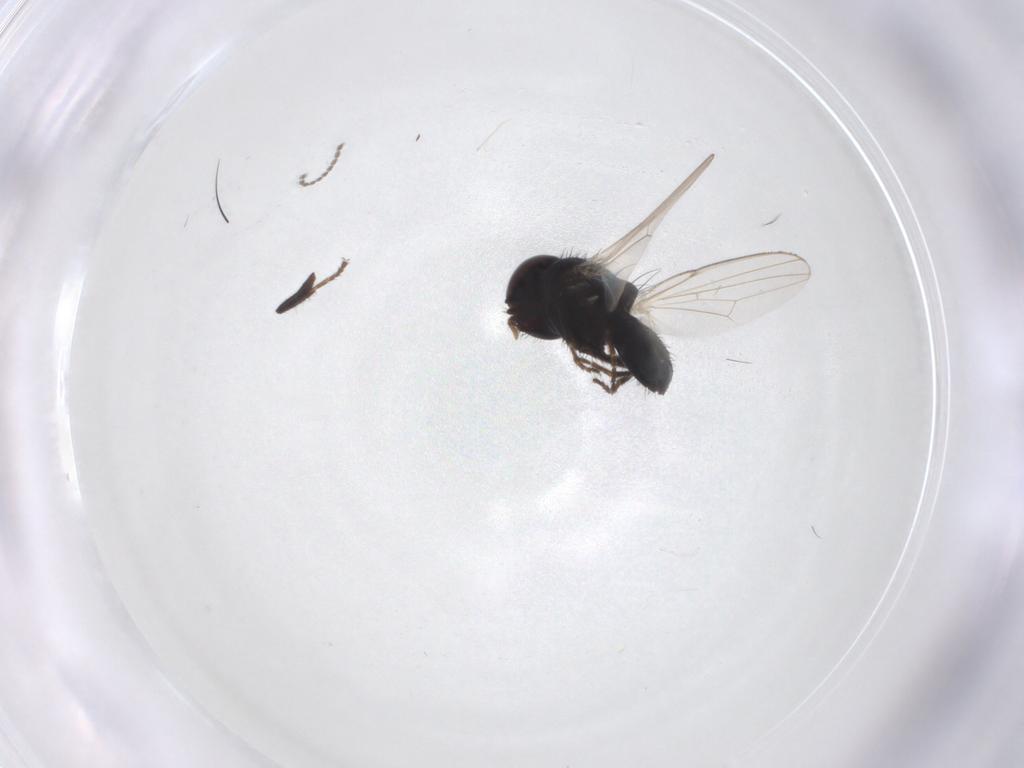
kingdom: Animalia
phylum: Arthropoda
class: Insecta
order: Diptera
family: Milichiidae
